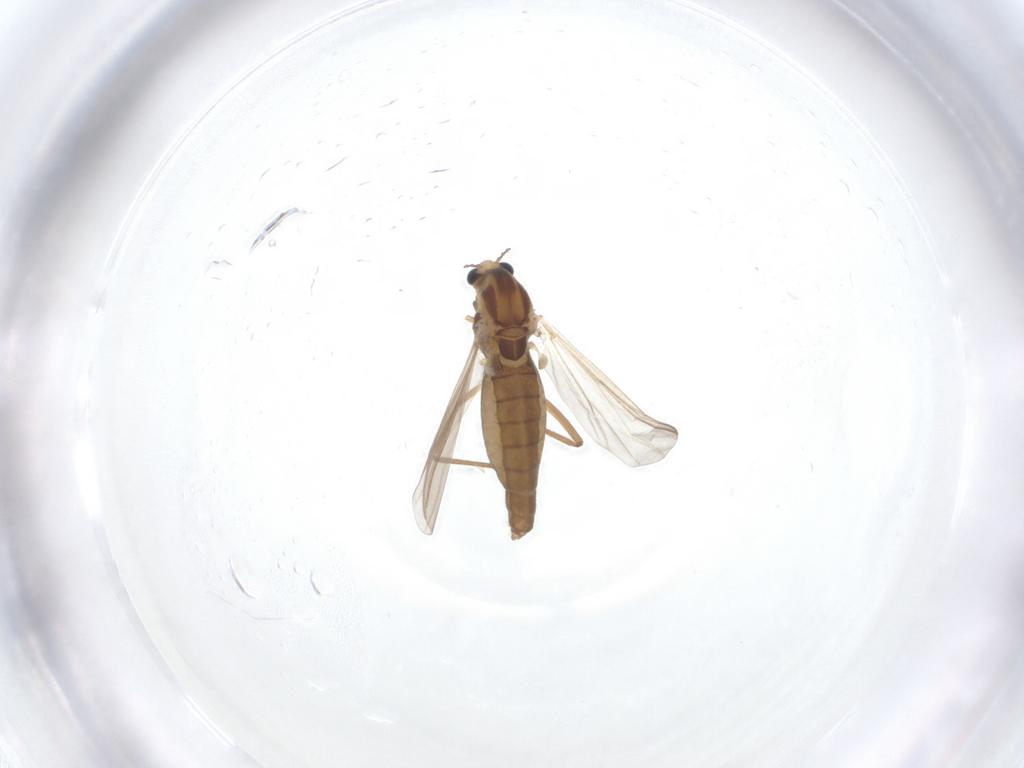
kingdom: Animalia
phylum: Arthropoda
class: Insecta
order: Diptera
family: Chironomidae
